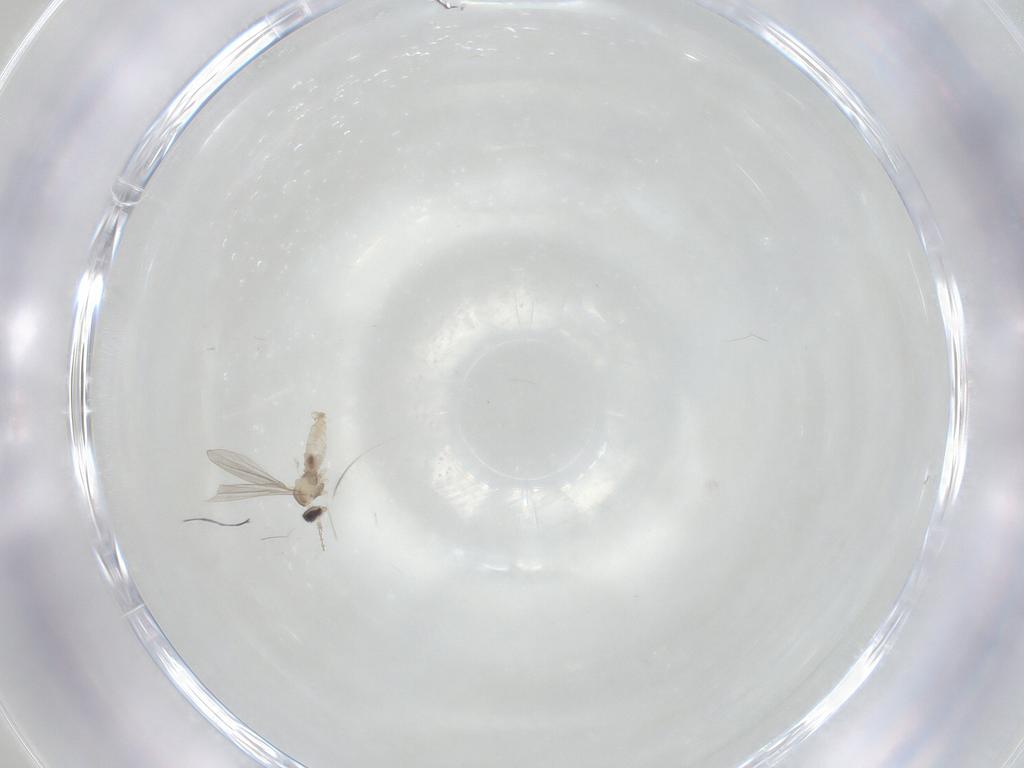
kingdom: Animalia
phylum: Arthropoda
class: Insecta
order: Diptera
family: Cecidomyiidae
